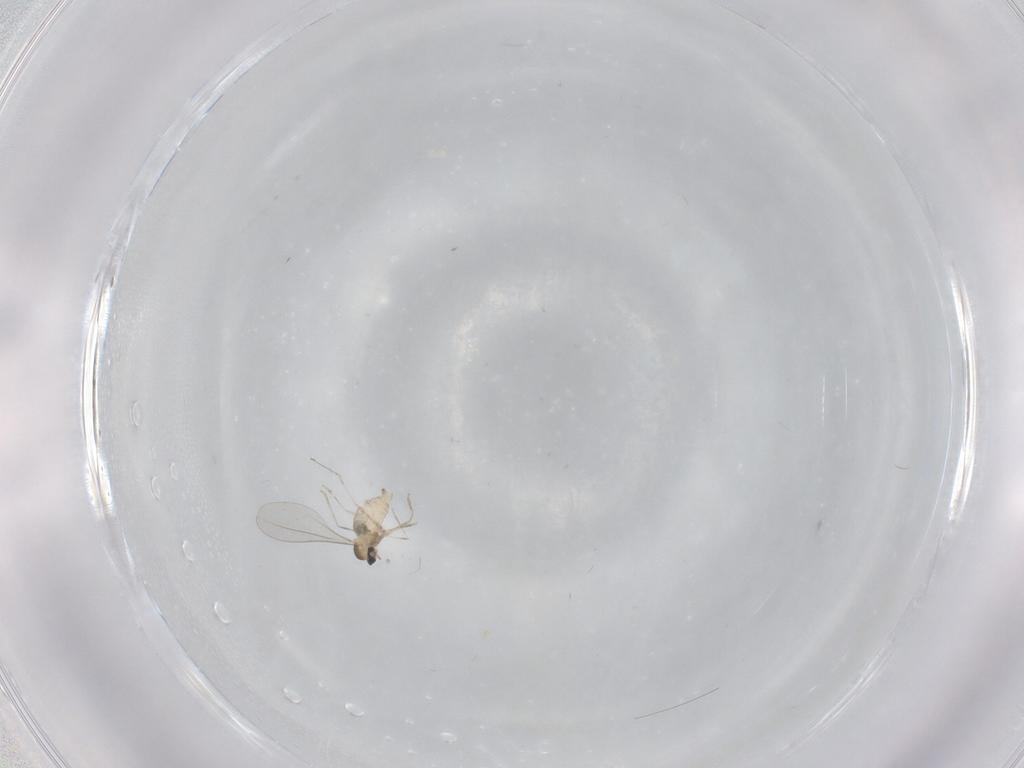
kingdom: Animalia
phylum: Arthropoda
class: Insecta
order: Diptera
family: Cecidomyiidae
